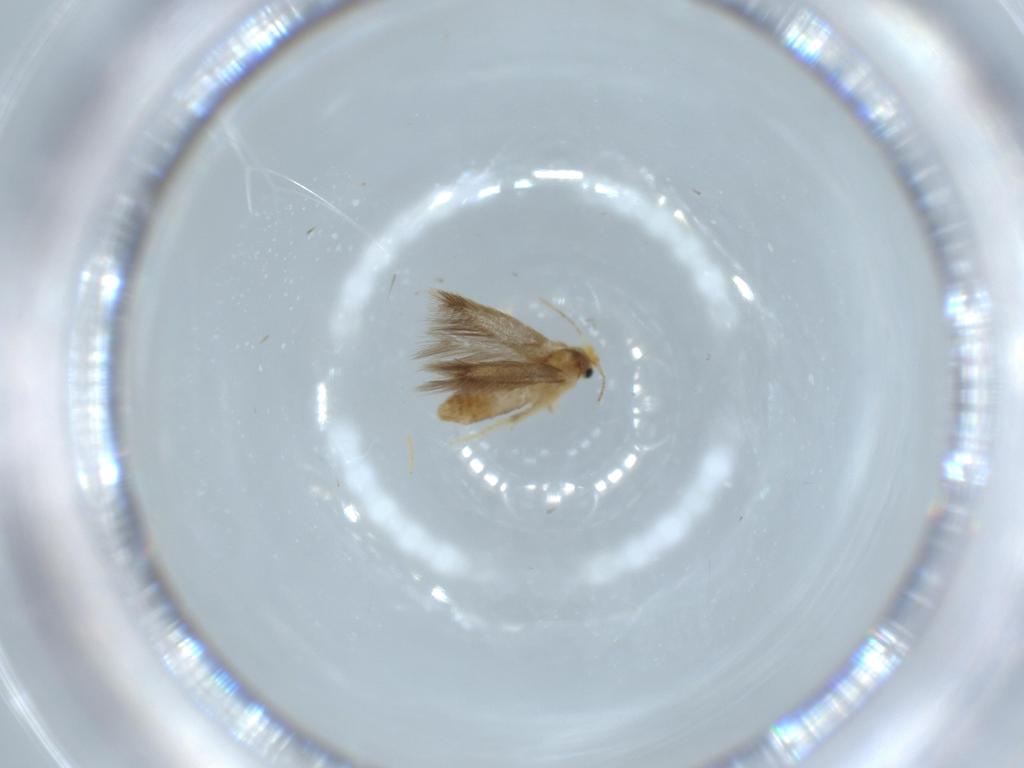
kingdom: Animalia
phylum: Arthropoda
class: Insecta
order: Lepidoptera
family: Nepticulidae
